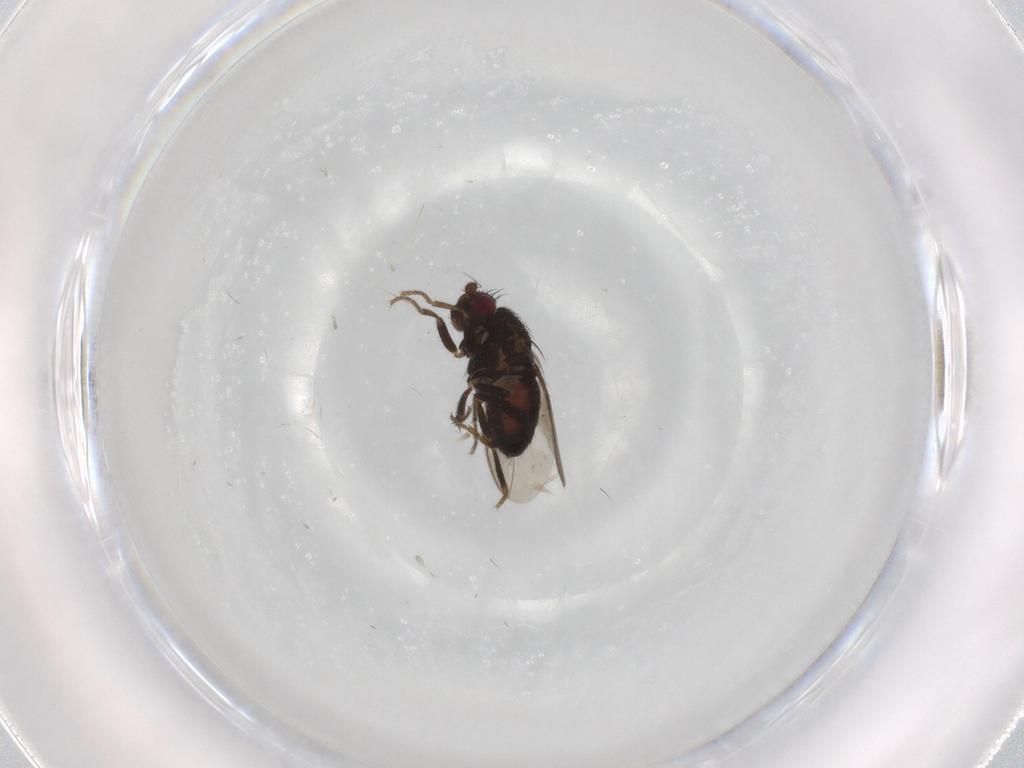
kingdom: Animalia
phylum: Arthropoda
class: Insecta
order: Diptera
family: Sphaeroceridae
